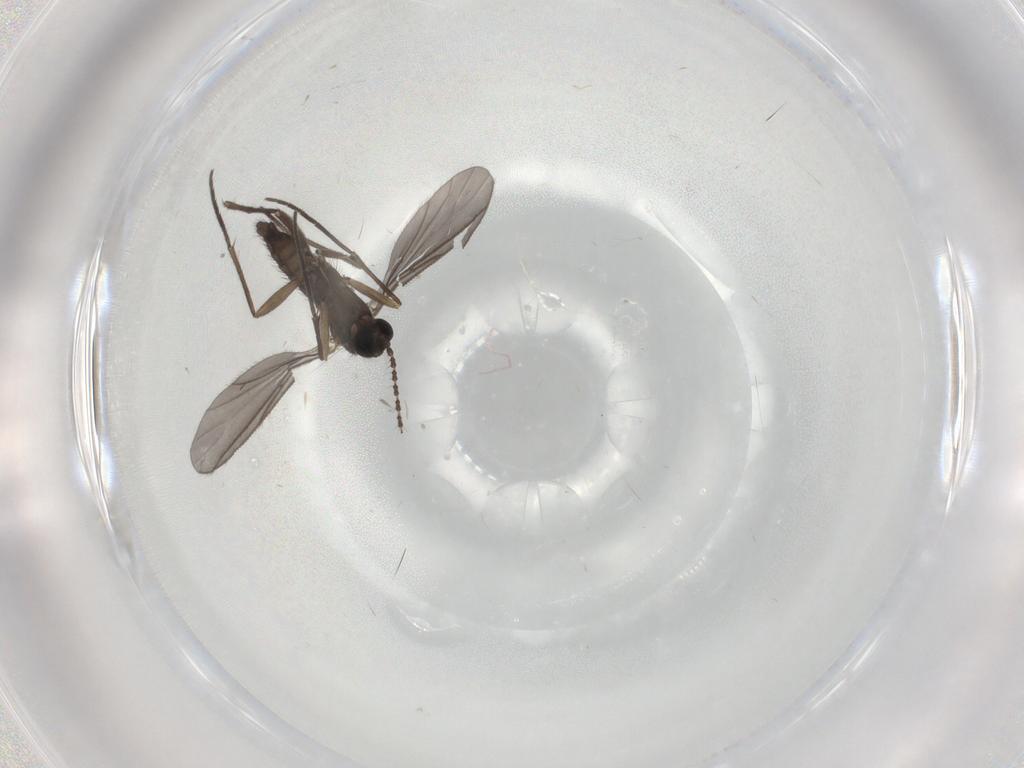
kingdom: Animalia
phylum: Arthropoda
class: Insecta
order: Diptera
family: Sciaridae
